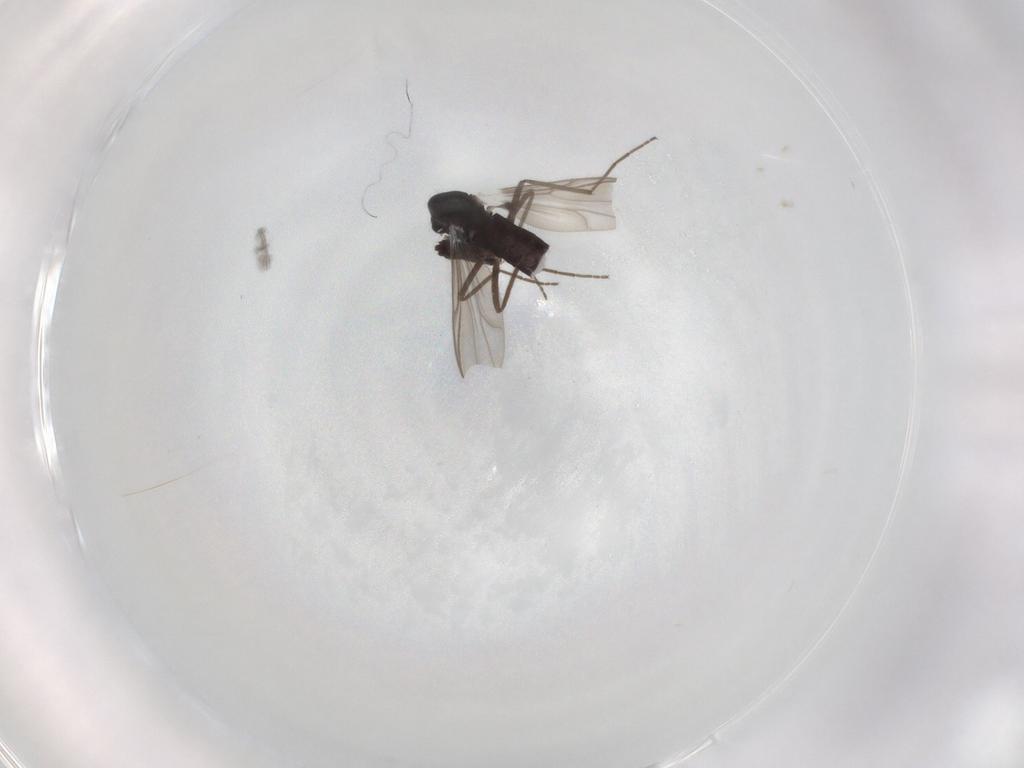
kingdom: Animalia
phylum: Arthropoda
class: Insecta
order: Diptera
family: Chironomidae
